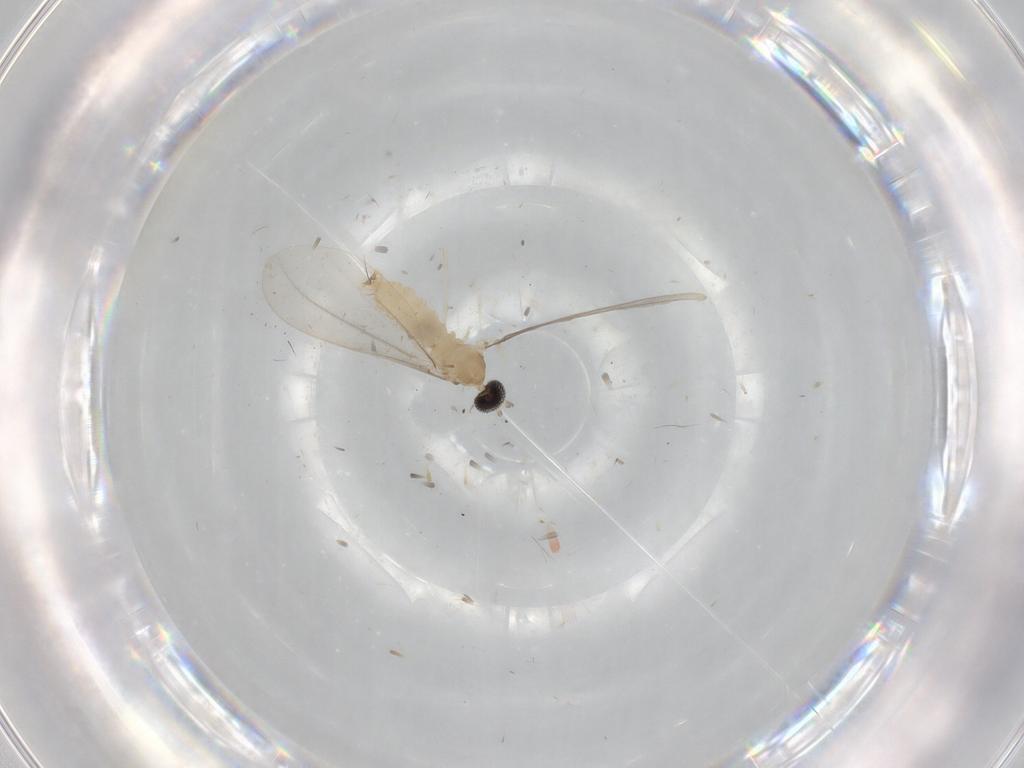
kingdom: Animalia
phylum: Arthropoda
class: Insecta
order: Diptera
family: Cecidomyiidae
